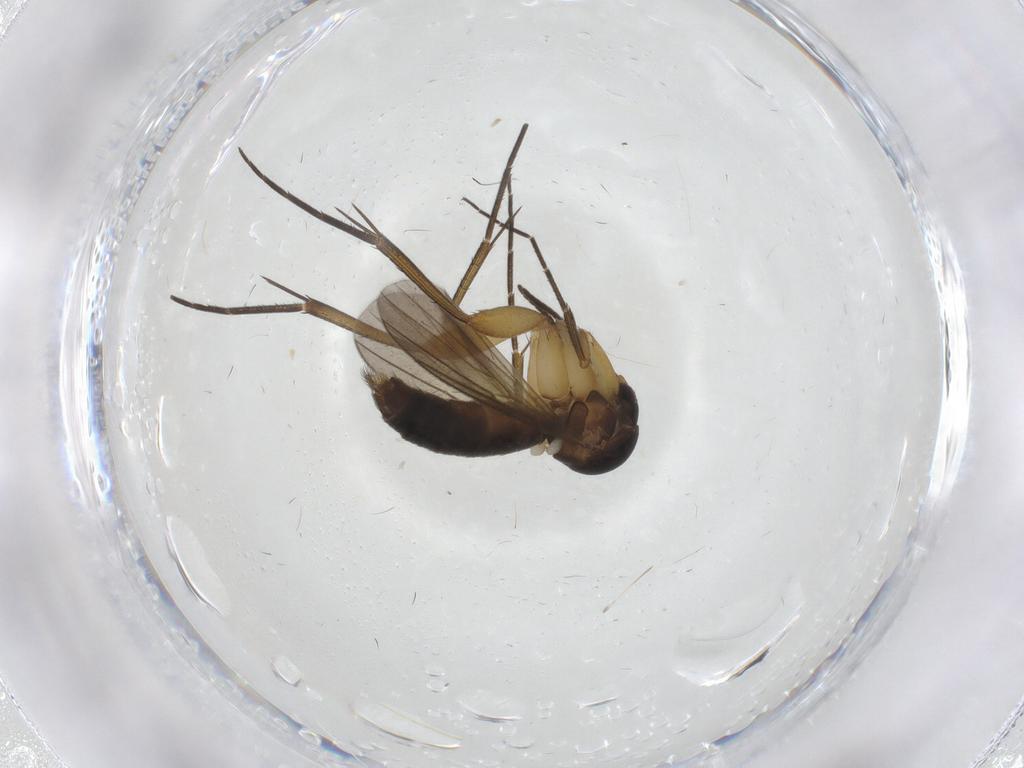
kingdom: Animalia
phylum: Arthropoda
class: Insecta
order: Diptera
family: Mycetophilidae
